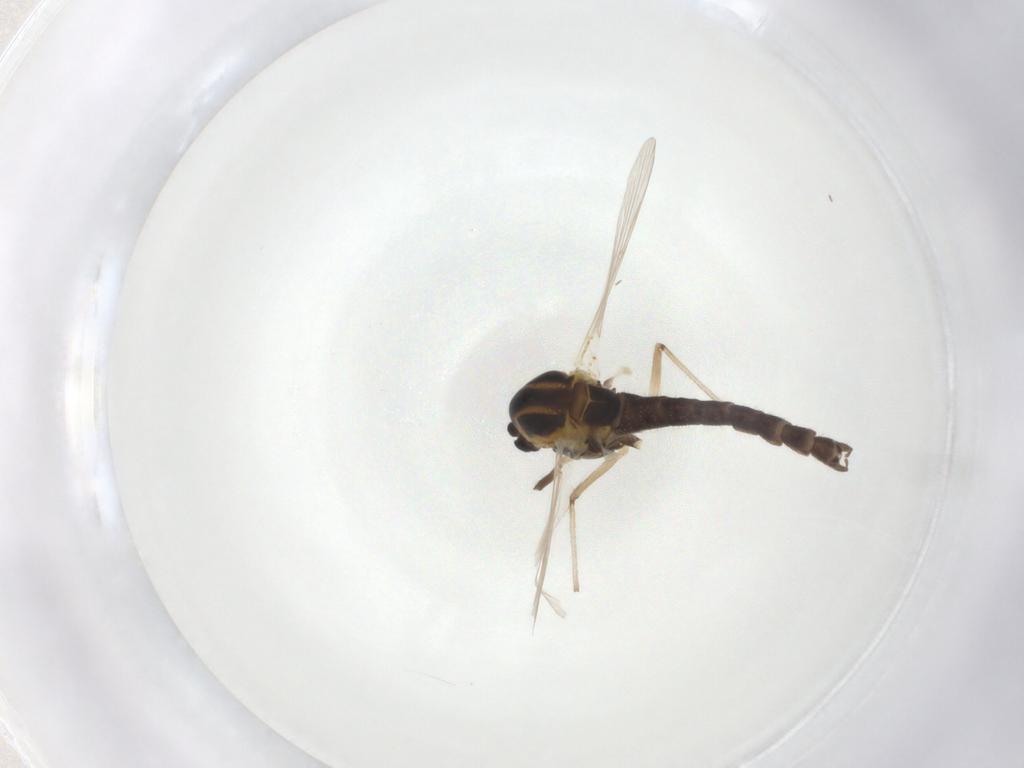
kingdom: Animalia
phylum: Arthropoda
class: Insecta
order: Diptera
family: Chironomidae
